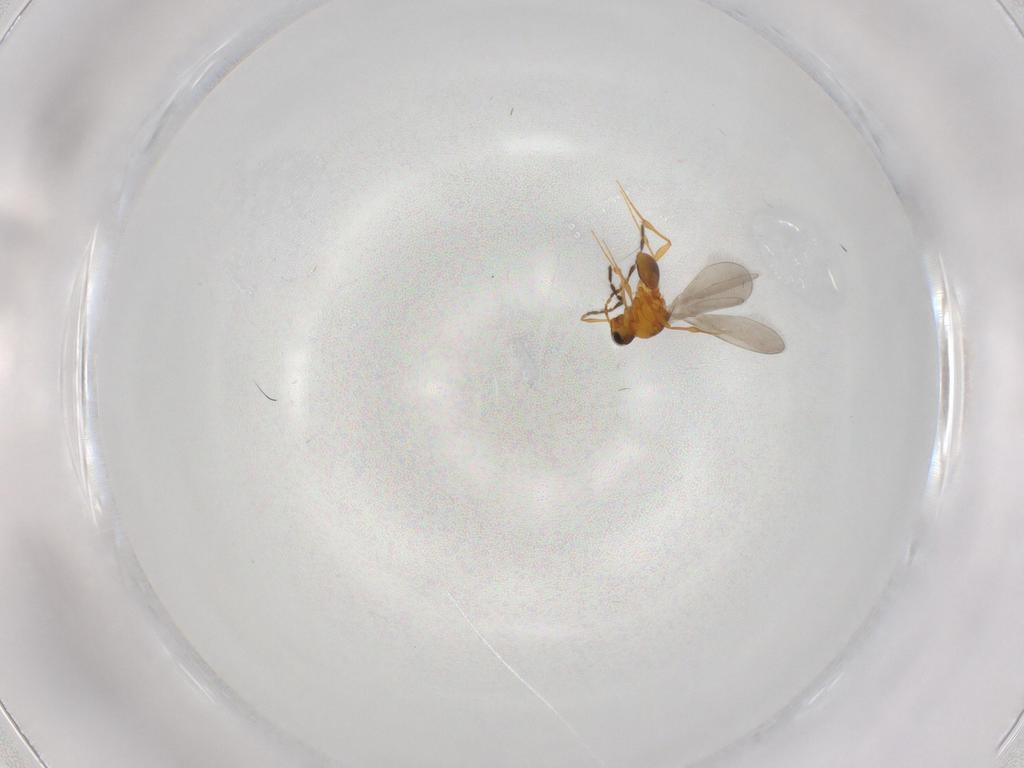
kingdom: Animalia
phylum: Arthropoda
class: Insecta
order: Hymenoptera
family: Platygastridae
